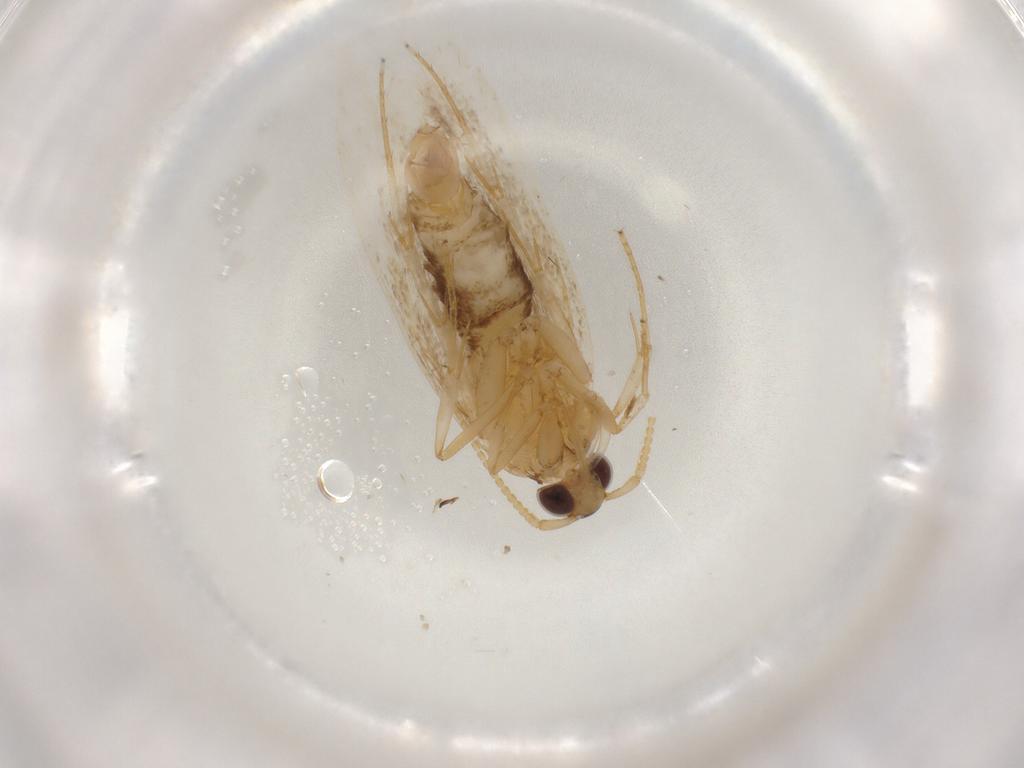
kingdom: Animalia
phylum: Arthropoda
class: Insecta
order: Lepidoptera
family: Lecithoceridae
